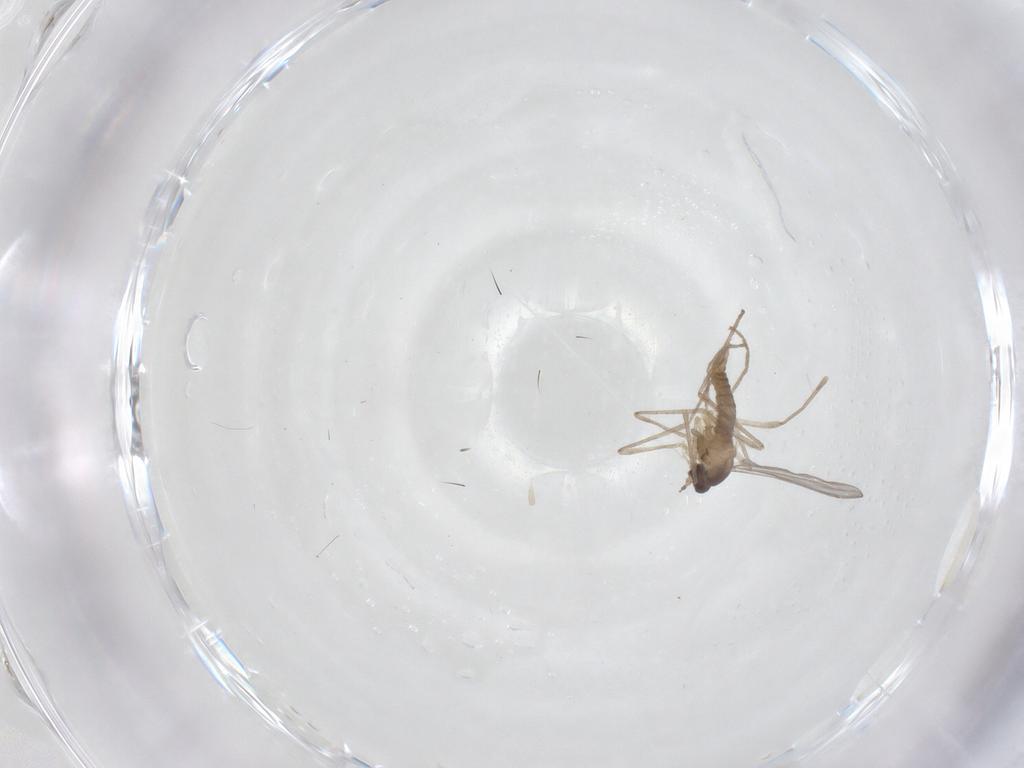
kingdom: Animalia
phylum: Arthropoda
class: Insecta
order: Diptera
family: Cecidomyiidae
